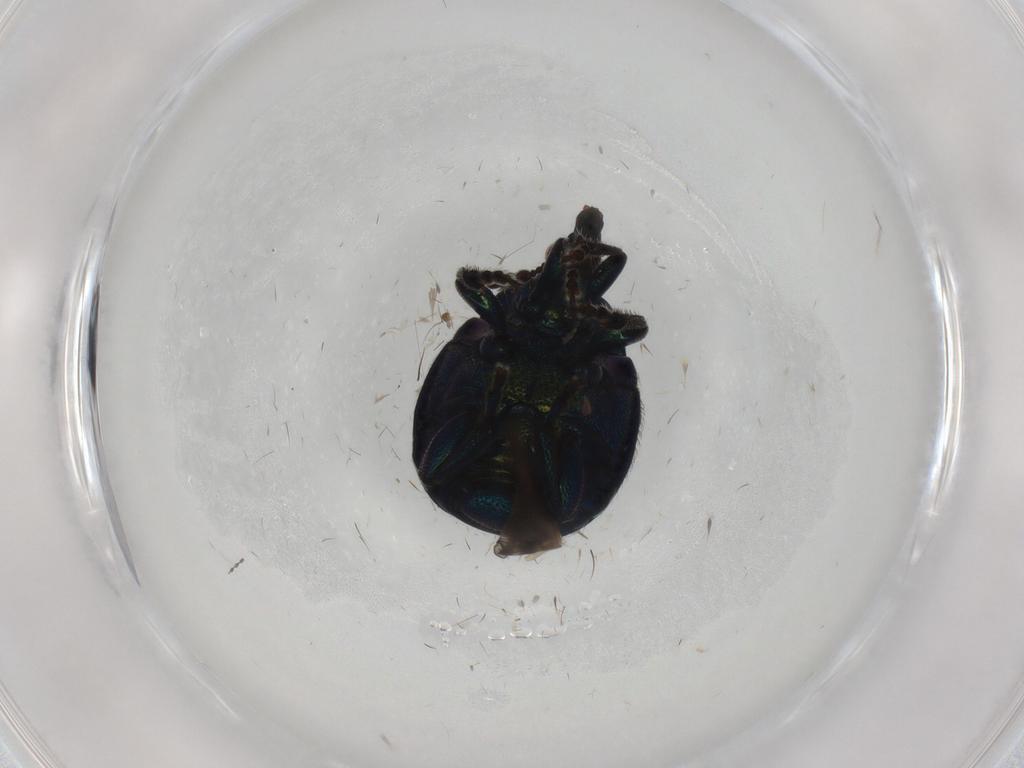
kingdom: Animalia
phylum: Arthropoda
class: Insecta
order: Coleoptera
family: Attelabidae
